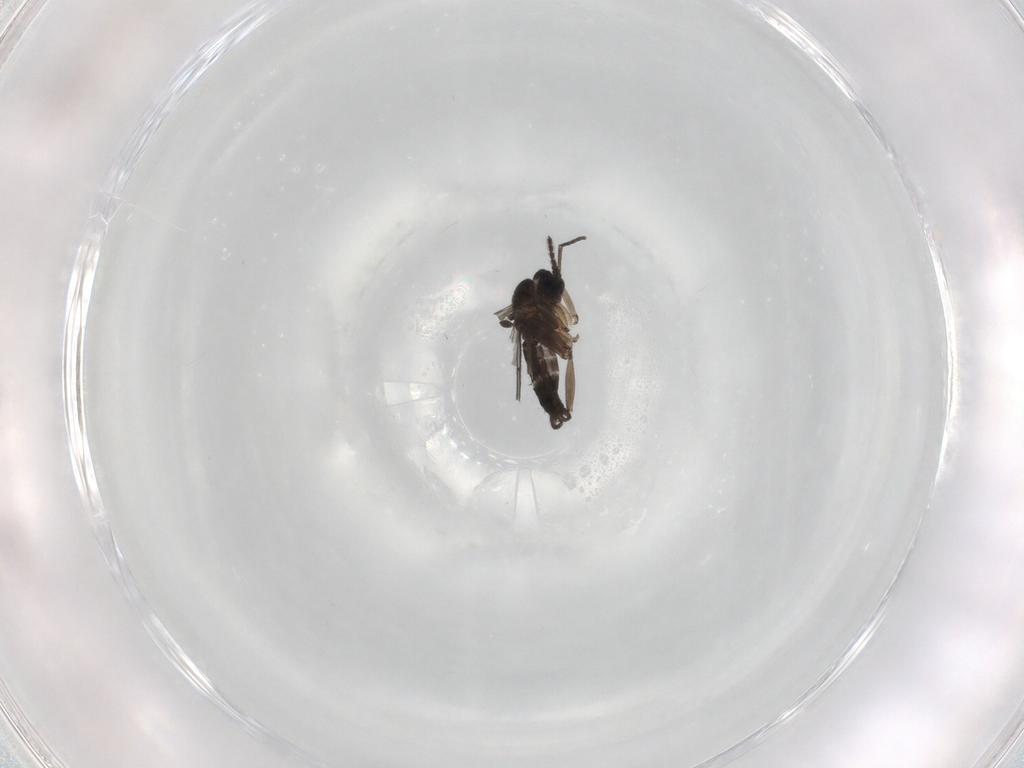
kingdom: Animalia
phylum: Arthropoda
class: Insecta
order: Diptera
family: Sciaridae
